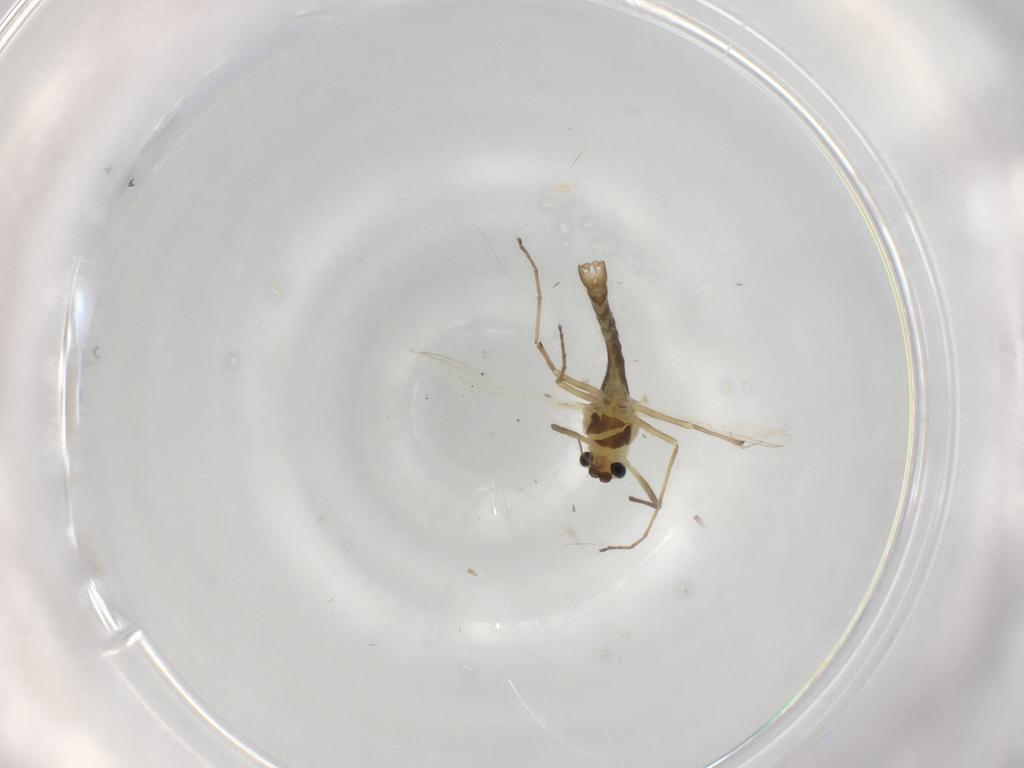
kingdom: Animalia
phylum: Arthropoda
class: Insecta
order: Diptera
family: Chironomidae
